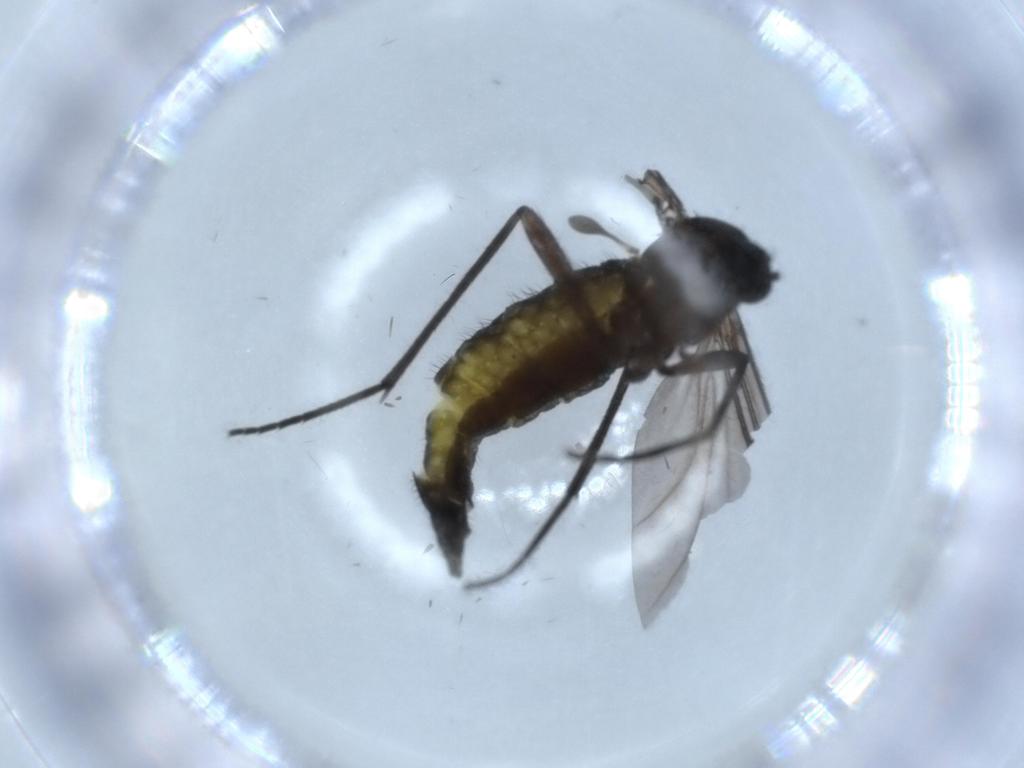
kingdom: Animalia
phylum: Arthropoda
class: Insecta
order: Diptera
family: Sciaridae
